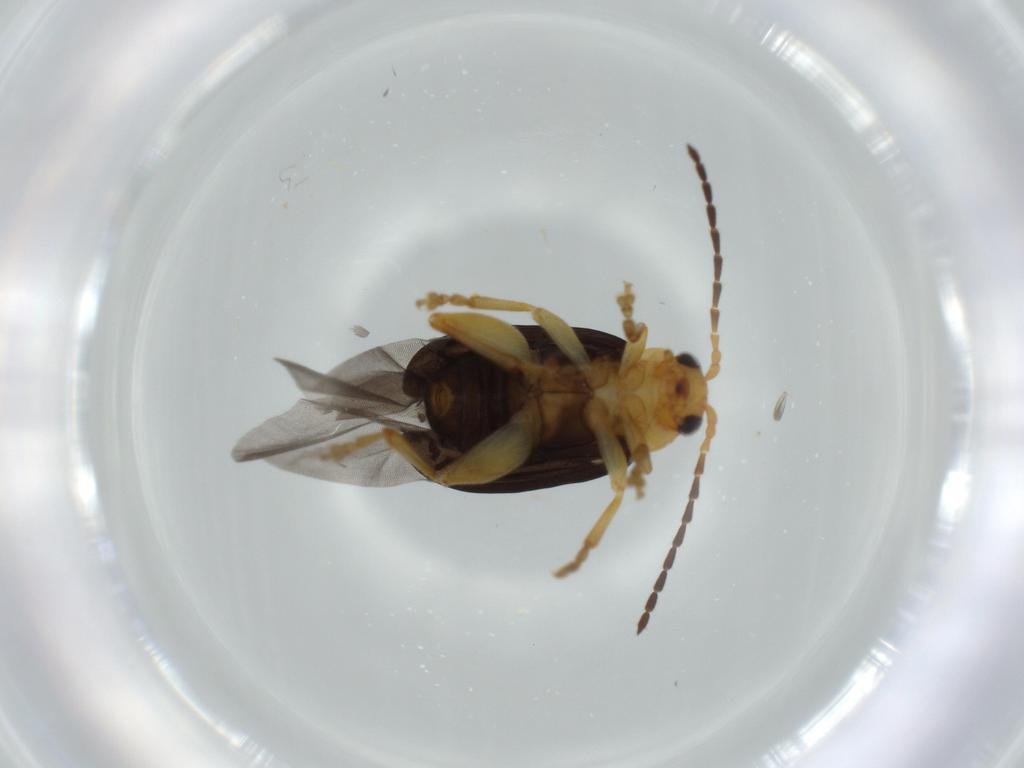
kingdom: Animalia
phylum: Arthropoda
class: Insecta
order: Coleoptera
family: Chrysomelidae
